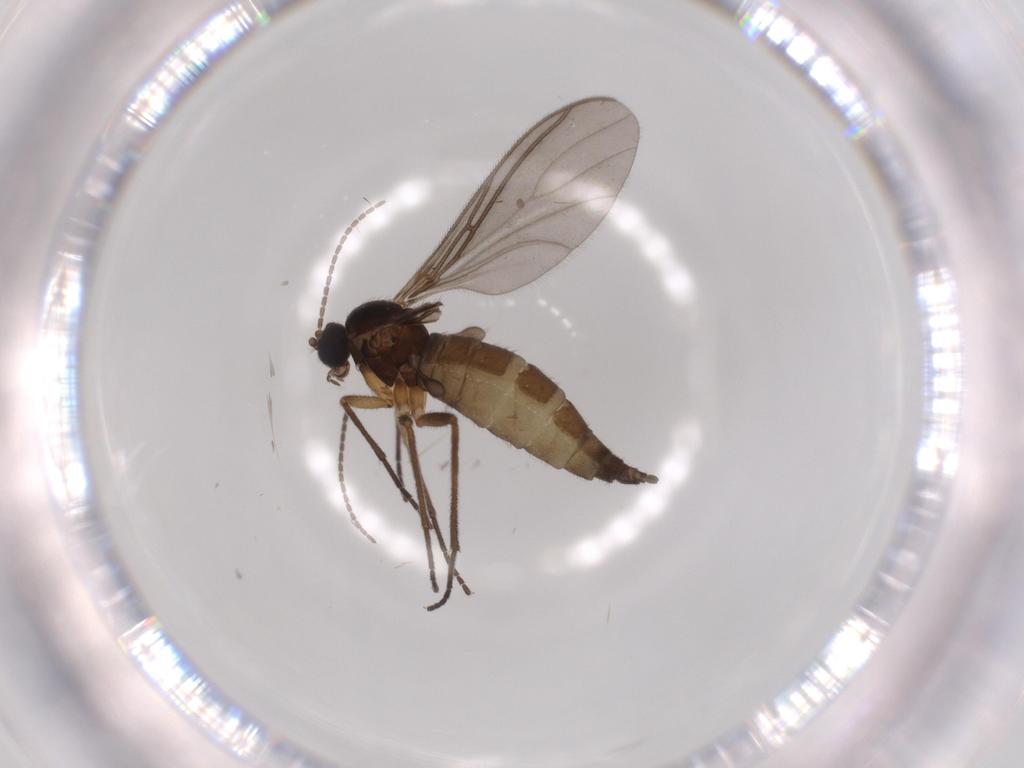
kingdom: Animalia
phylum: Arthropoda
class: Insecta
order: Diptera
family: Sciaridae
